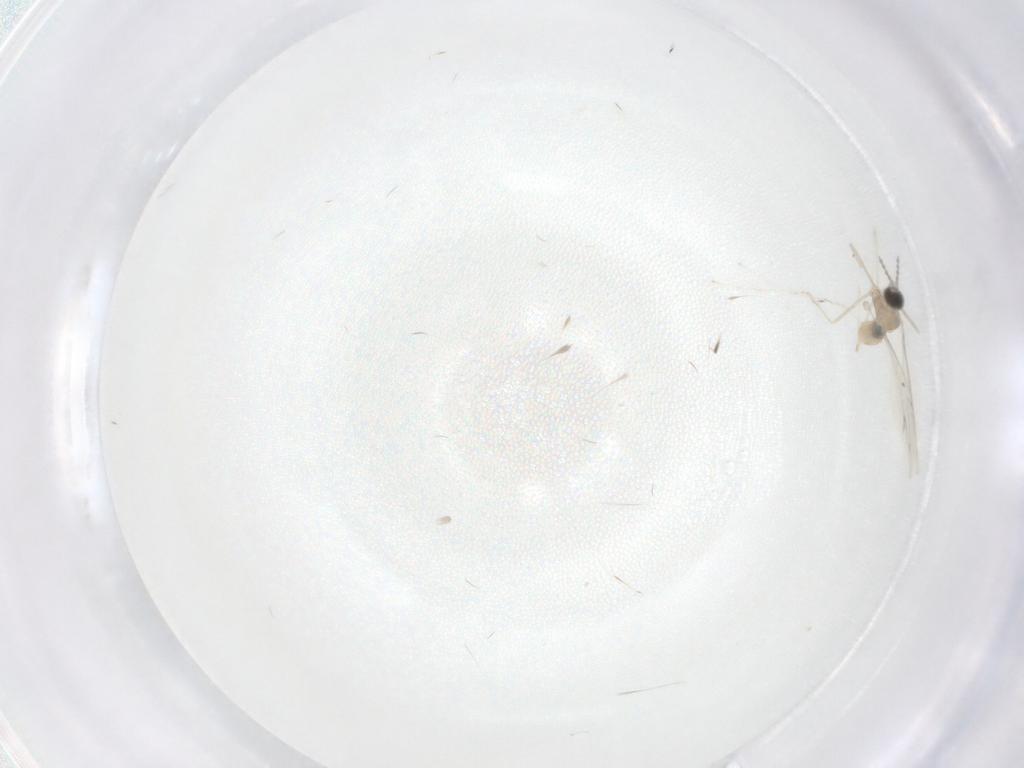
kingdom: Animalia
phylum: Arthropoda
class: Insecta
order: Diptera
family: Cecidomyiidae
